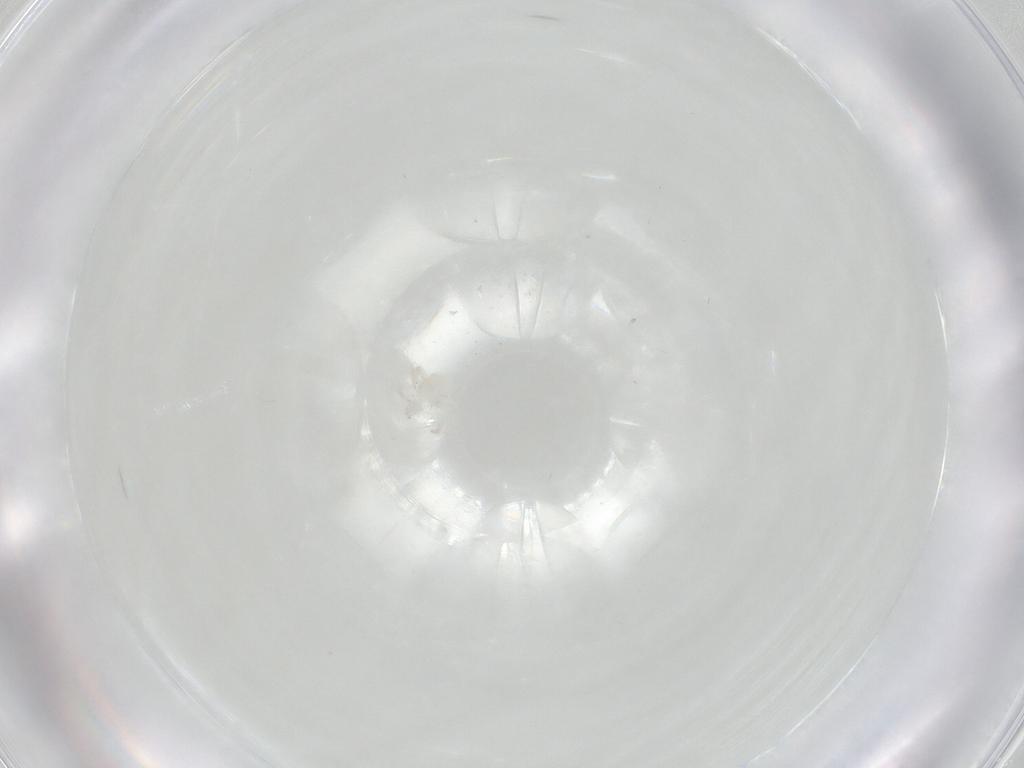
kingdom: Animalia
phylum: Arthropoda
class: Arachnida
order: Trombidiformes
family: Anystidae
